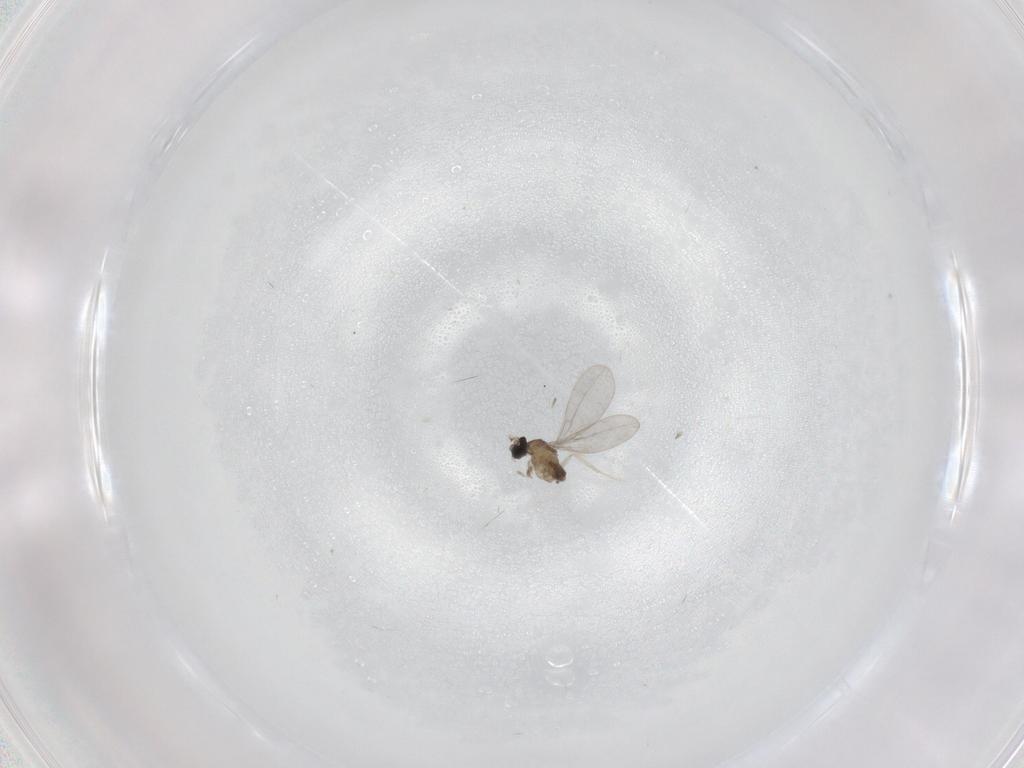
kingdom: Animalia
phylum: Arthropoda
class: Insecta
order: Diptera
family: Cecidomyiidae
